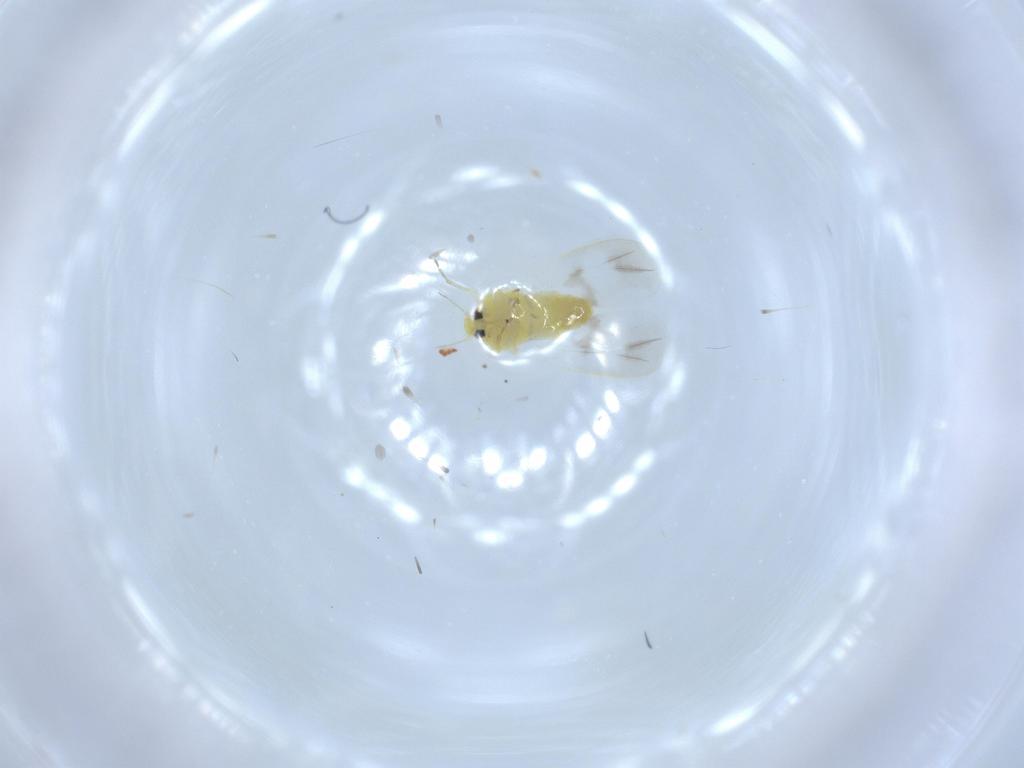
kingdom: Animalia
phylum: Arthropoda
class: Insecta
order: Hemiptera
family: Aleyrodidae
